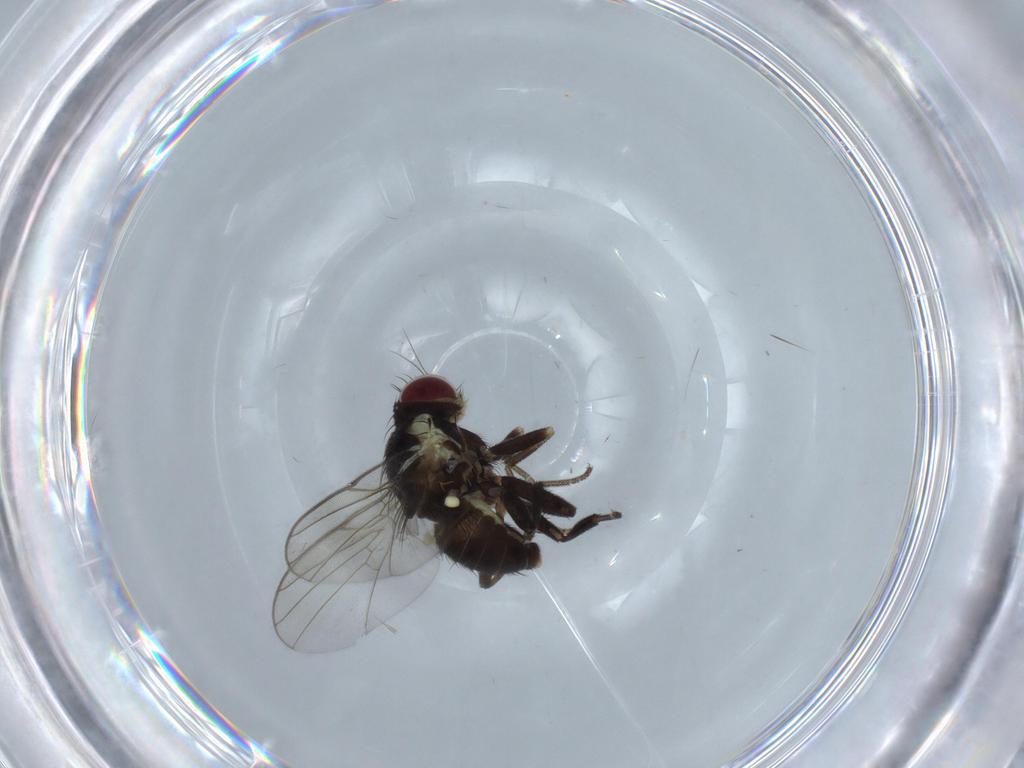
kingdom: Animalia
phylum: Arthropoda
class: Insecta
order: Diptera
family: Agromyzidae
